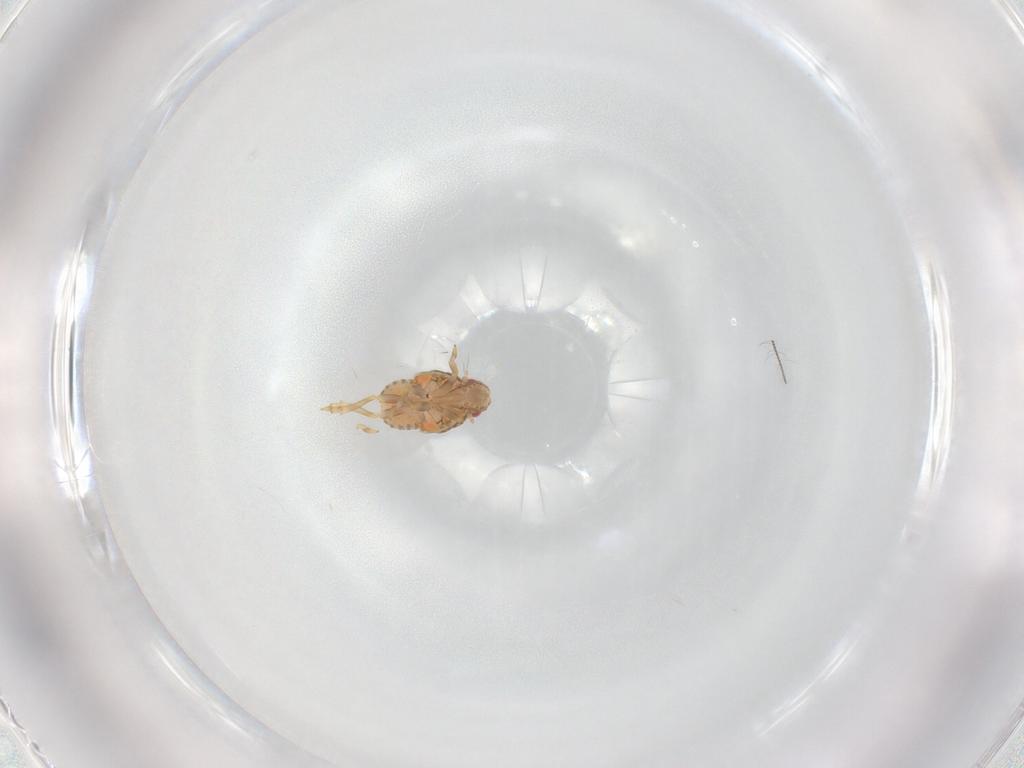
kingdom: Animalia
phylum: Arthropoda
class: Insecta
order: Hemiptera
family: Flatidae
